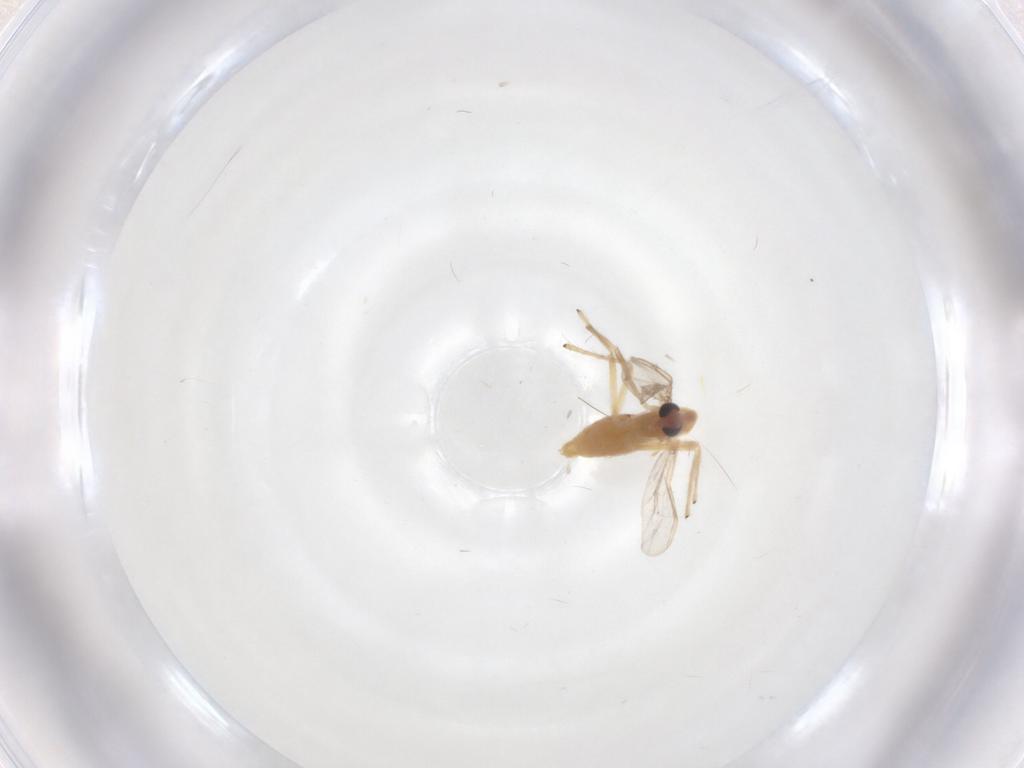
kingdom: Animalia
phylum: Arthropoda
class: Insecta
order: Diptera
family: Chironomidae
